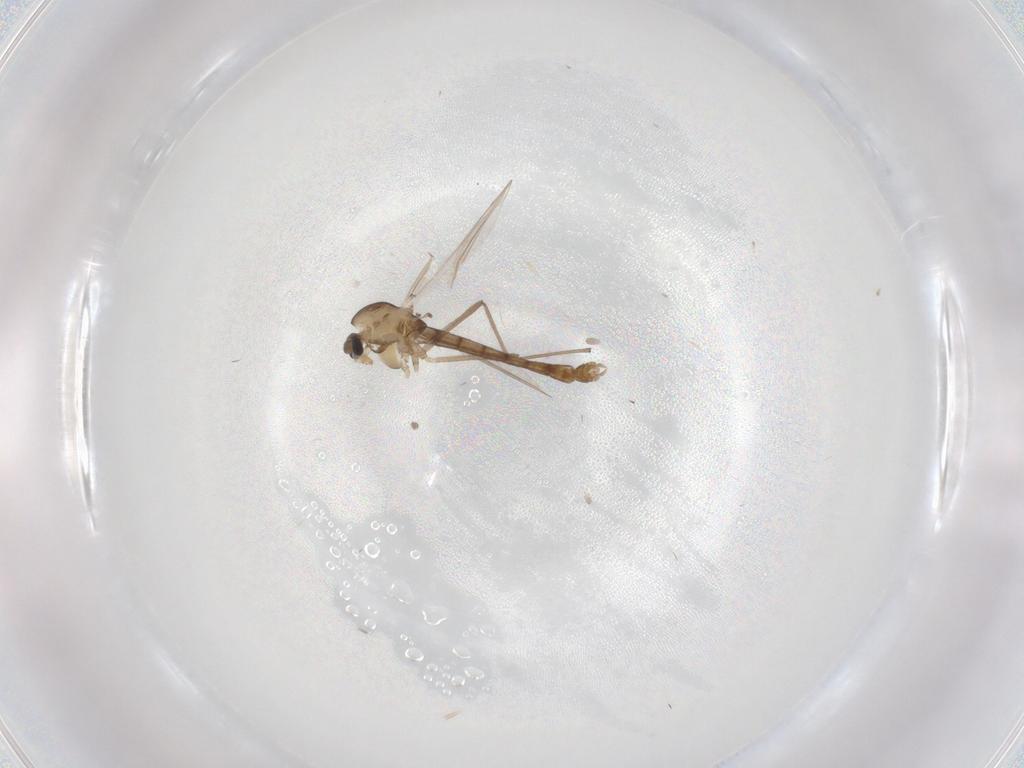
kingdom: Animalia
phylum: Arthropoda
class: Insecta
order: Diptera
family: Chironomidae
